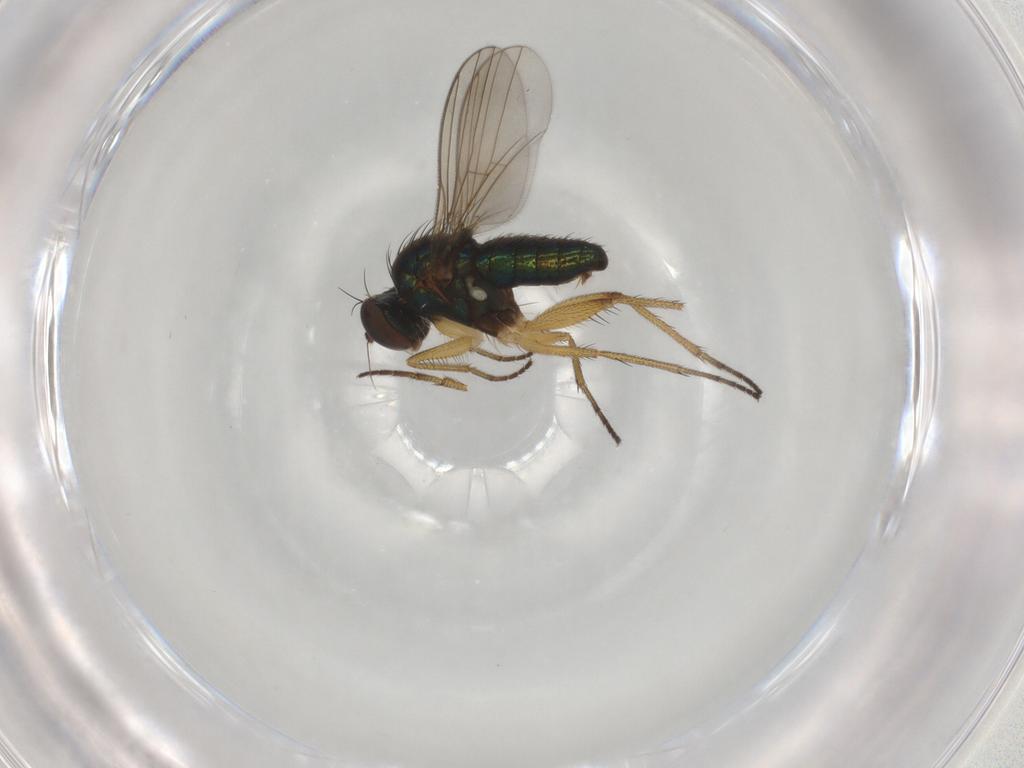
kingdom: Animalia
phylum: Arthropoda
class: Insecta
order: Diptera
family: Dolichopodidae
